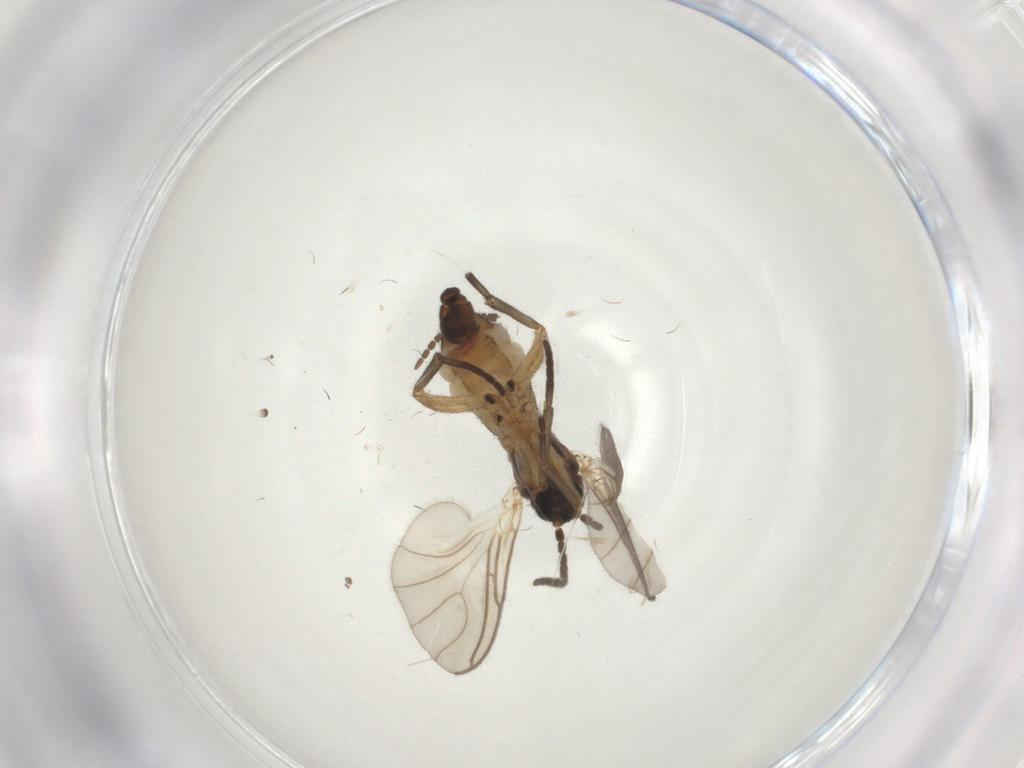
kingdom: Animalia
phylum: Arthropoda
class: Insecta
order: Diptera
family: Sciaridae
